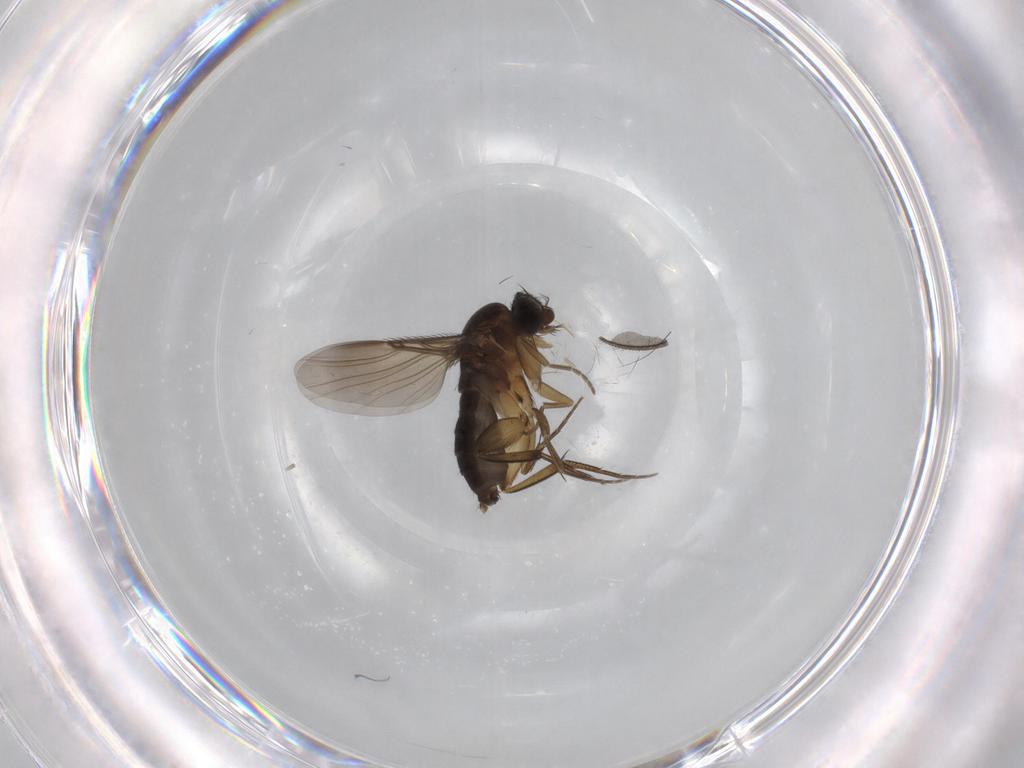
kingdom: Animalia
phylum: Arthropoda
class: Insecta
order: Diptera
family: Phoridae
